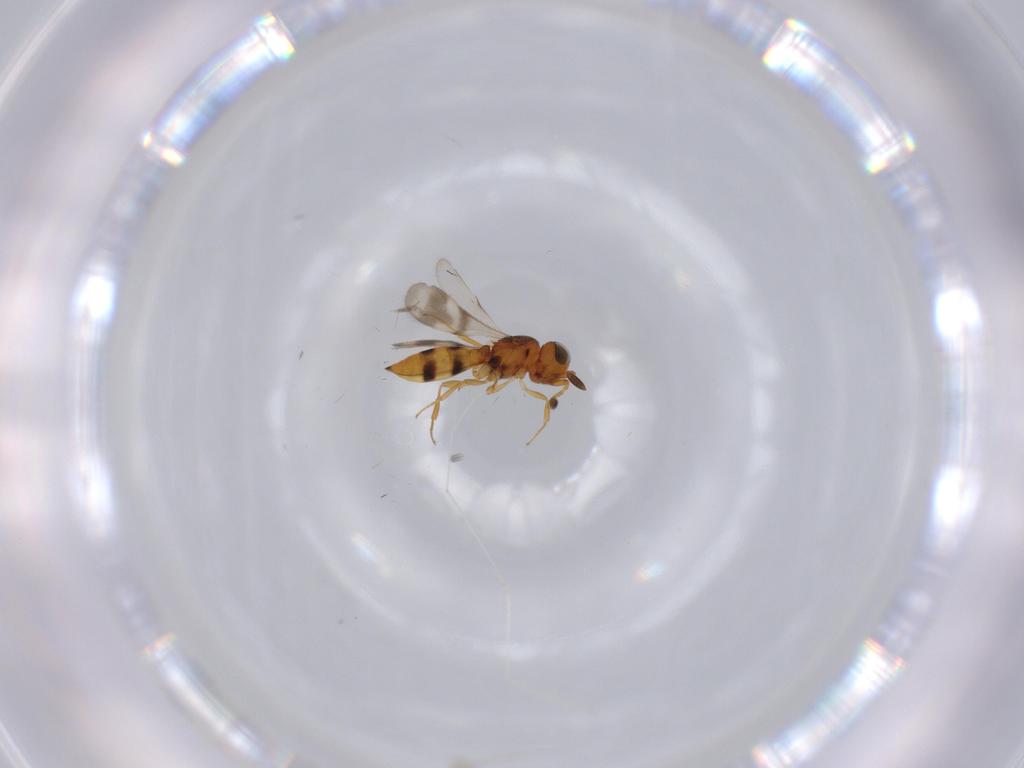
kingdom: Animalia
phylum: Arthropoda
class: Insecta
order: Hymenoptera
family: Scelionidae
